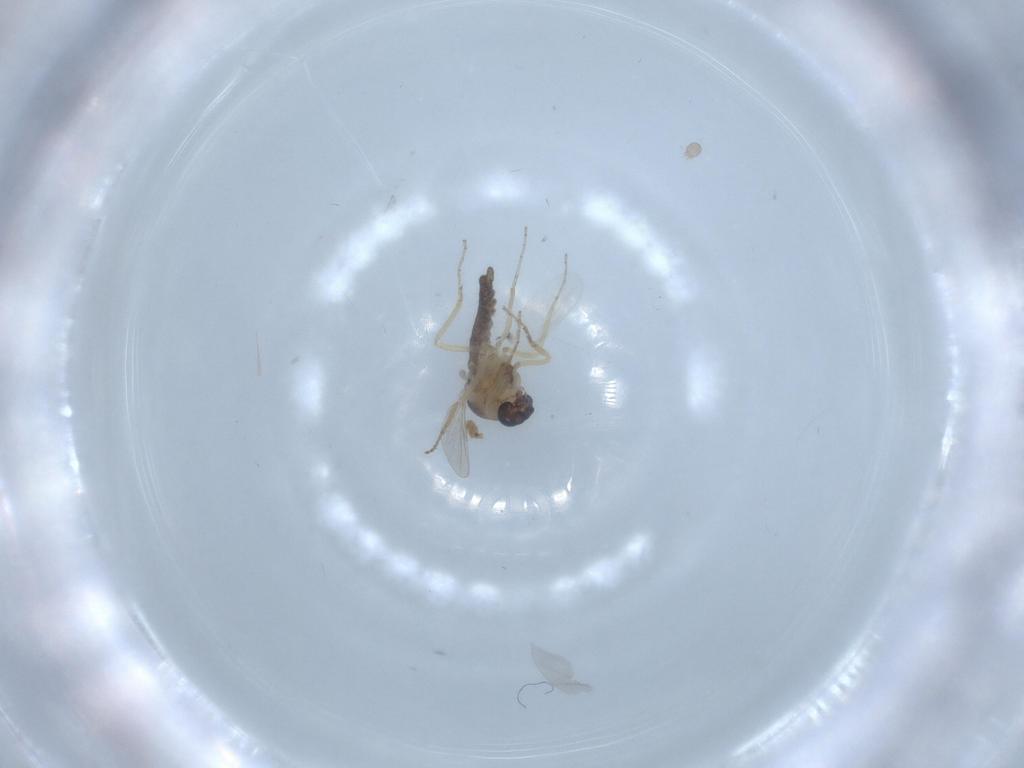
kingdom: Animalia
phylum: Arthropoda
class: Insecta
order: Diptera
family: Ceratopogonidae
